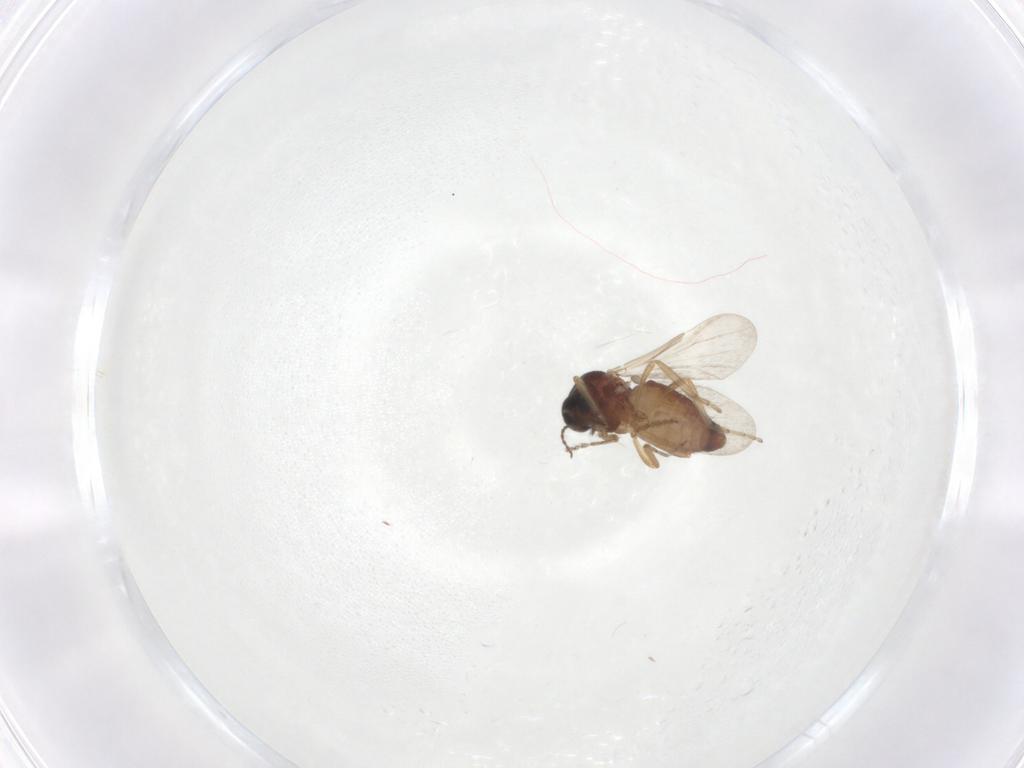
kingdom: Animalia
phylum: Arthropoda
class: Insecta
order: Diptera
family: Ceratopogonidae
